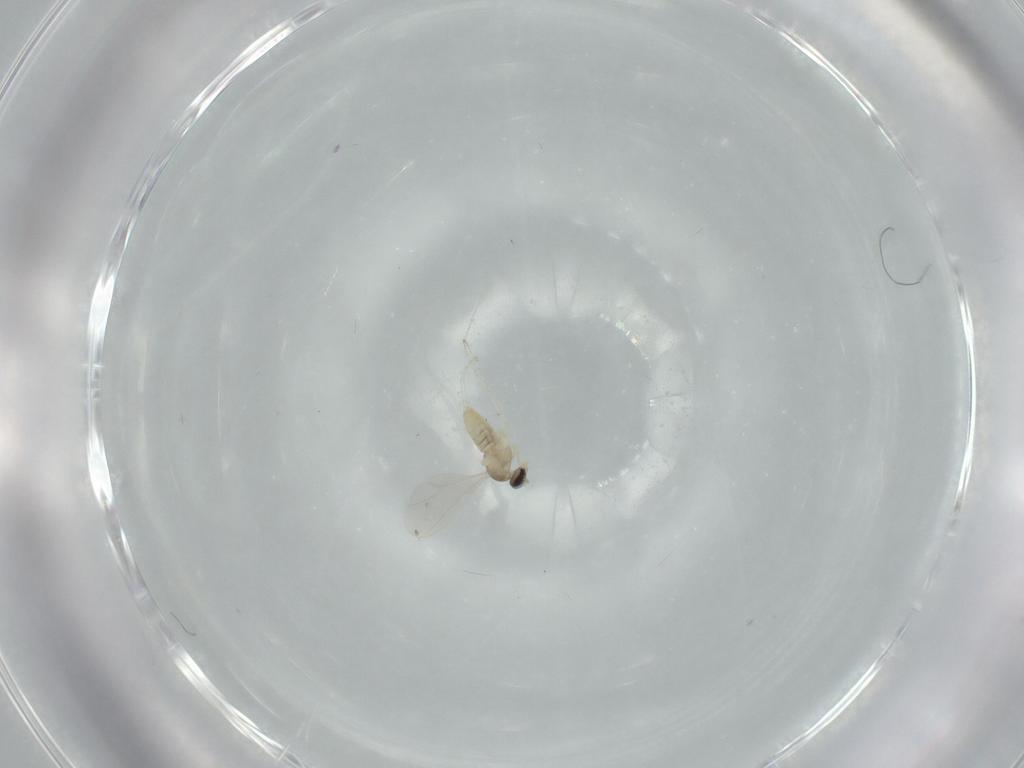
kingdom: Animalia
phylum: Arthropoda
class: Insecta
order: Diptera
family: Cecidomyiidae
